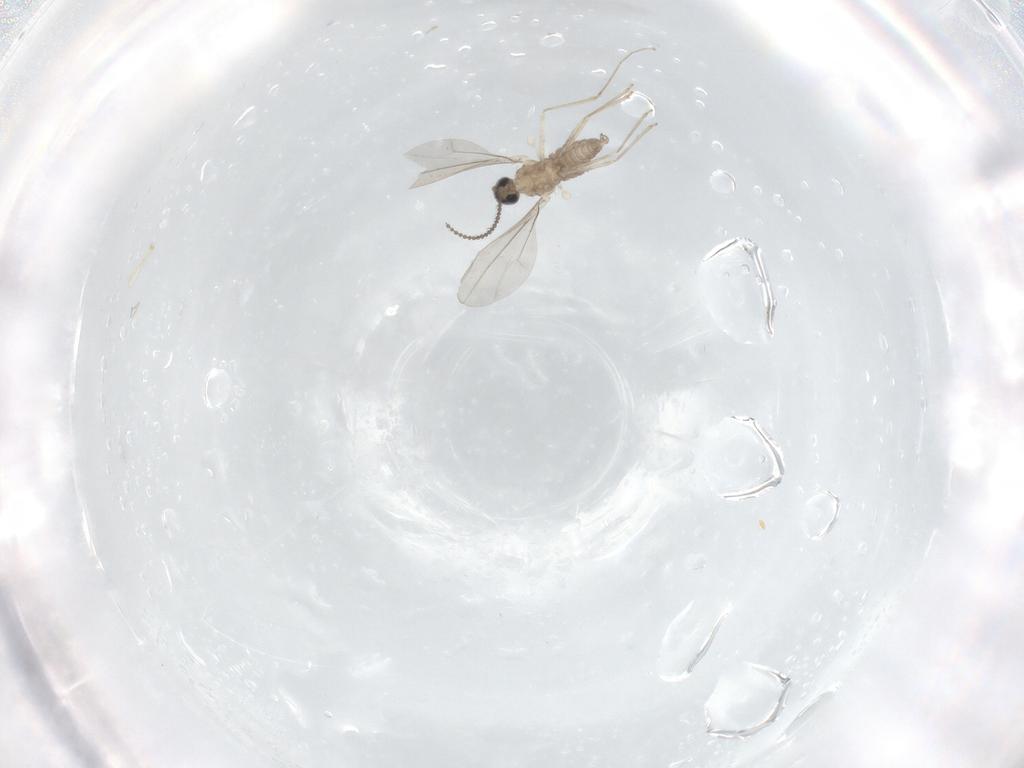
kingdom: Animalia
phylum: Arthropoda
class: Insecta
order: Diptera
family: Cecidomyiidae
